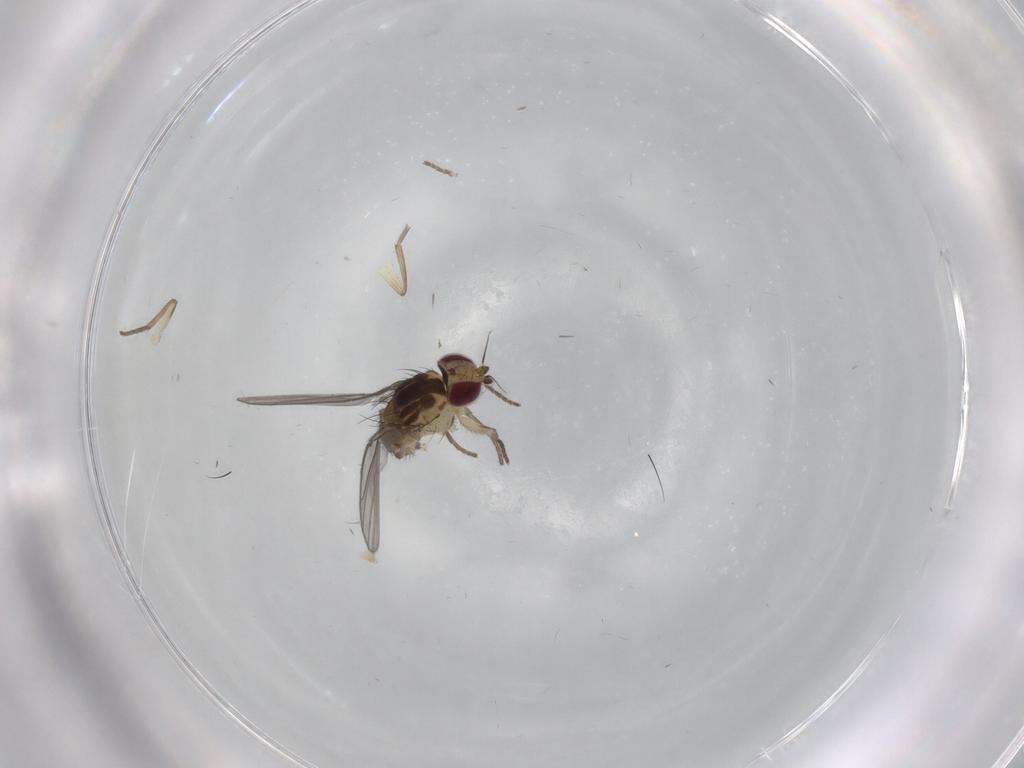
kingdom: Animalia
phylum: Arthropoda
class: Insecta
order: Diptera
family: Agromyzidae
